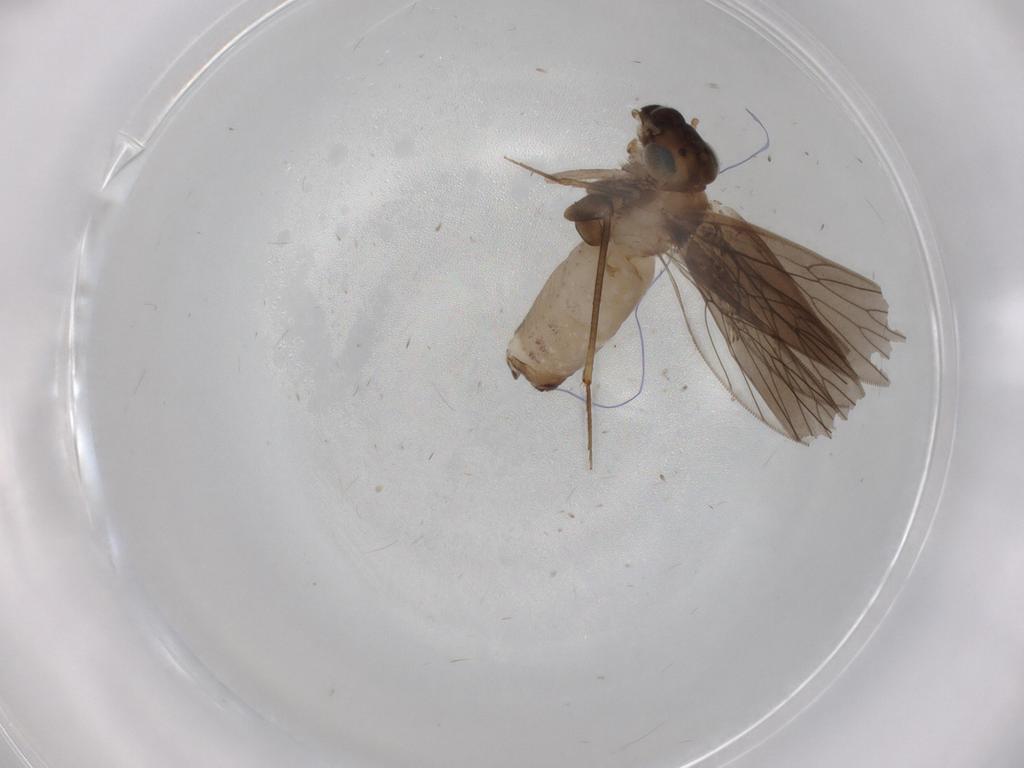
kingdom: Animalia
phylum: Arthropoda
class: Insecta
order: Psocodea
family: Lepidopsocidae
